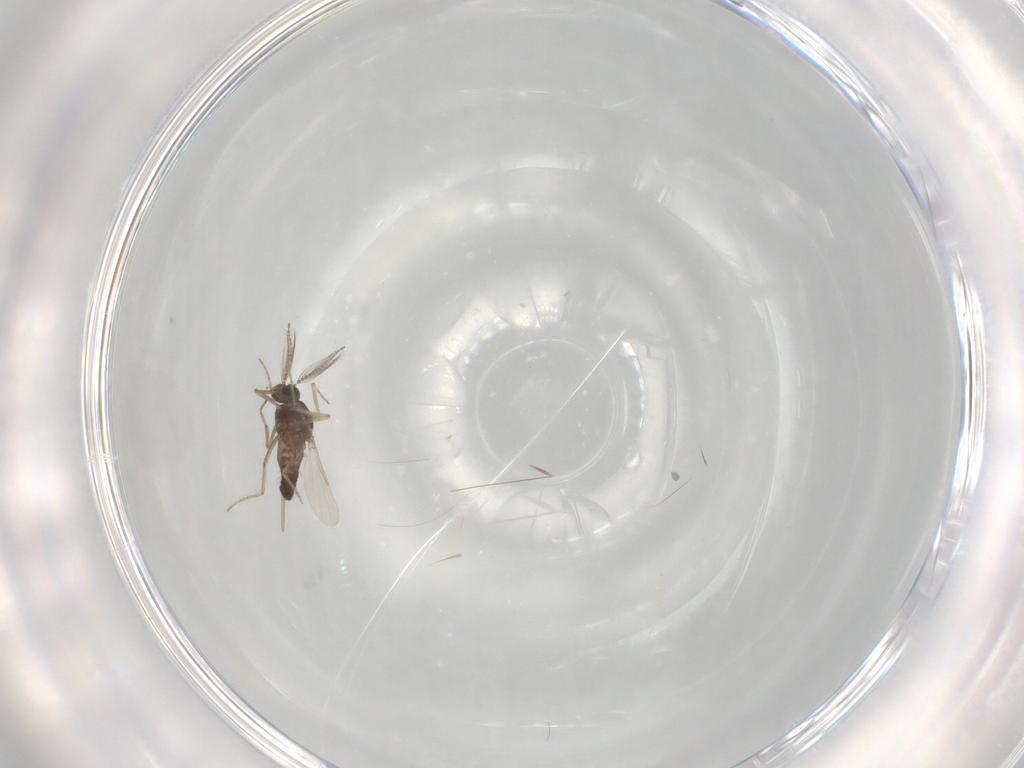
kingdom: Animalia
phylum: Arthropoda
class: Insecta
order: Diptera
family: Ceratopogonidae
